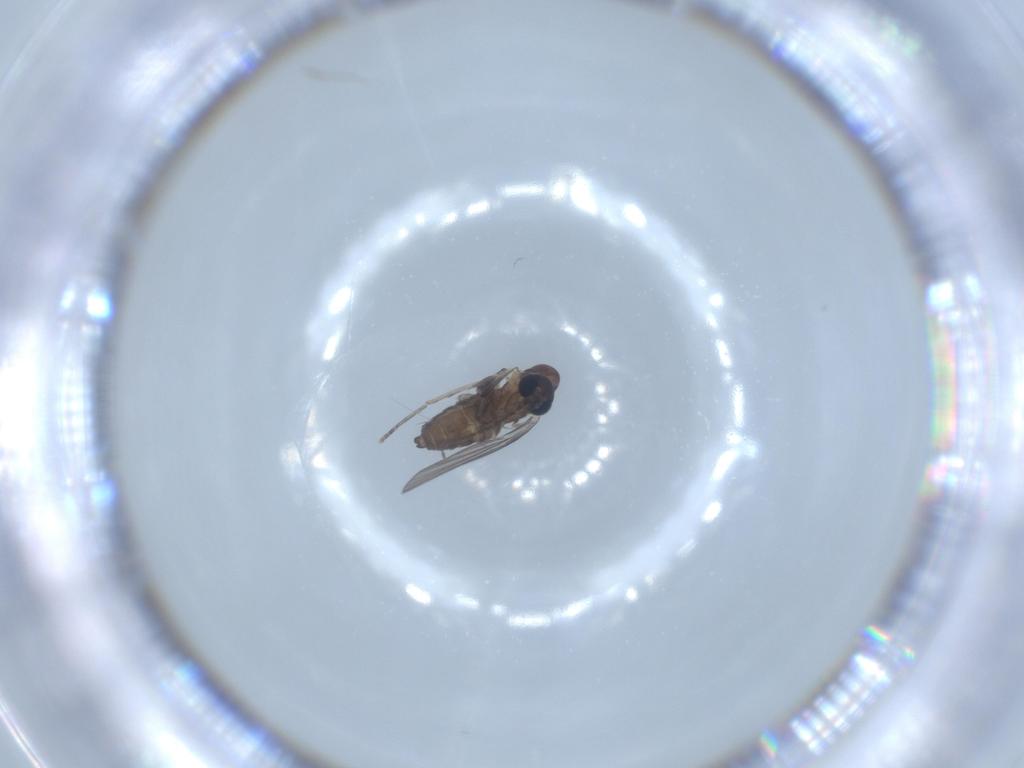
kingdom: Animalia
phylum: Arthropoda
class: Insecta
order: Diptera
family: Psychodidae
